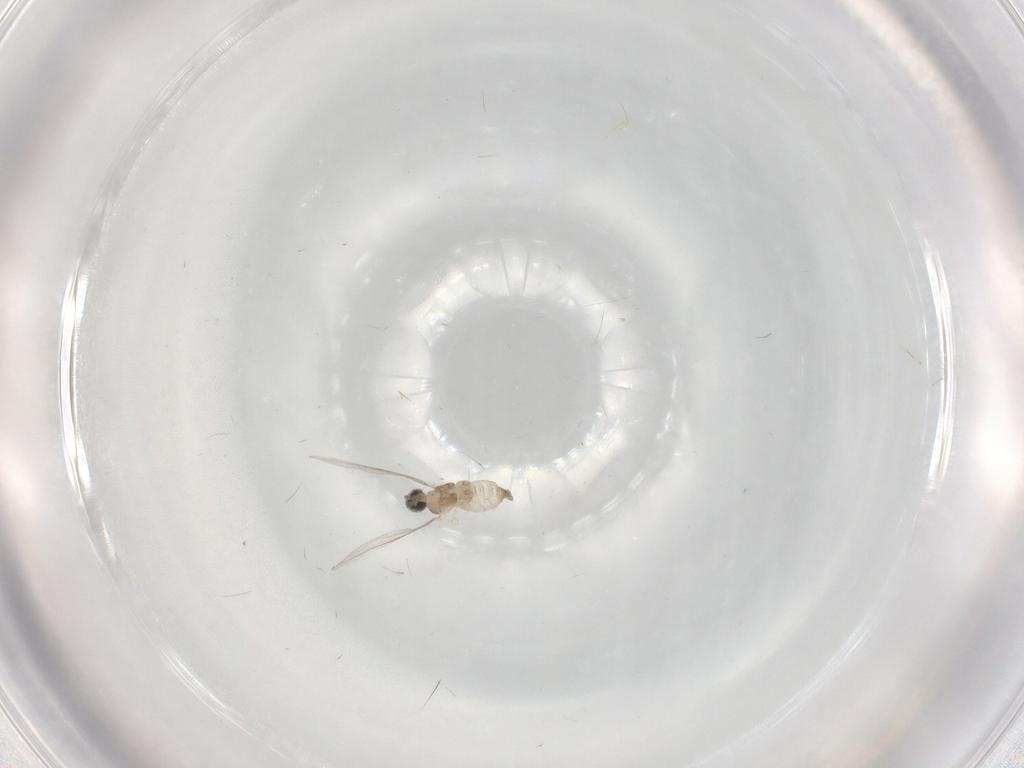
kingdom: Animalia
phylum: Arthropoda
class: Insecta
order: Diptera
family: Cecidomyiidae
